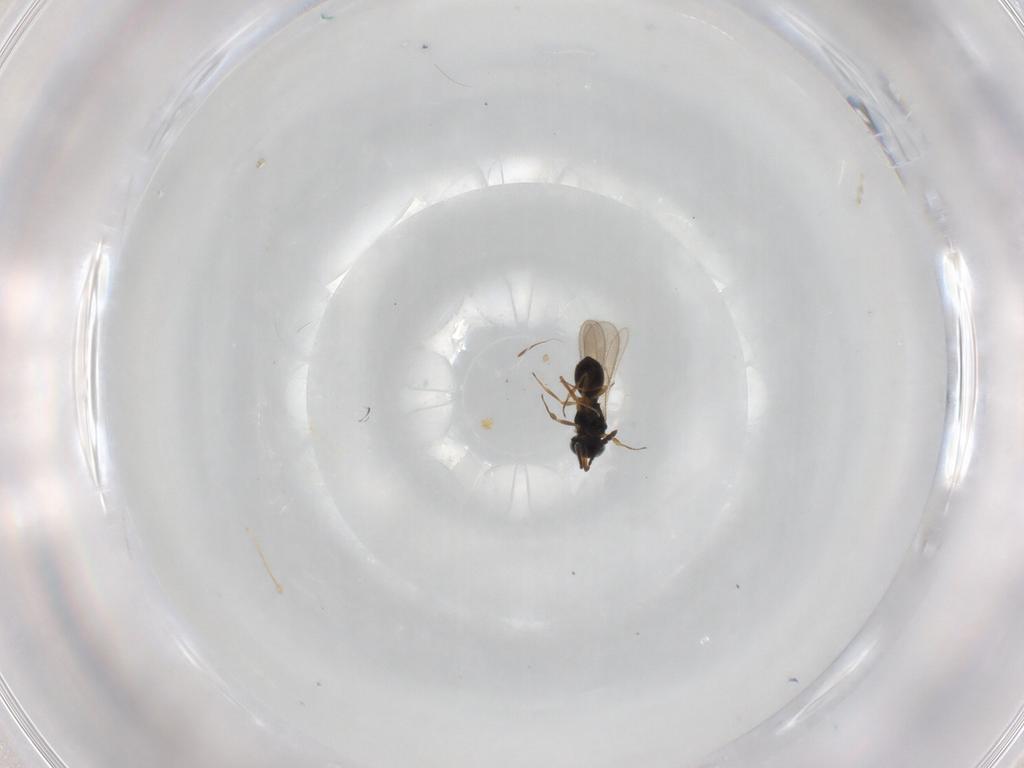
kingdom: Animalia
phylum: Arthropoda
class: Insecta
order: Hymenoptera
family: Scelionidae
